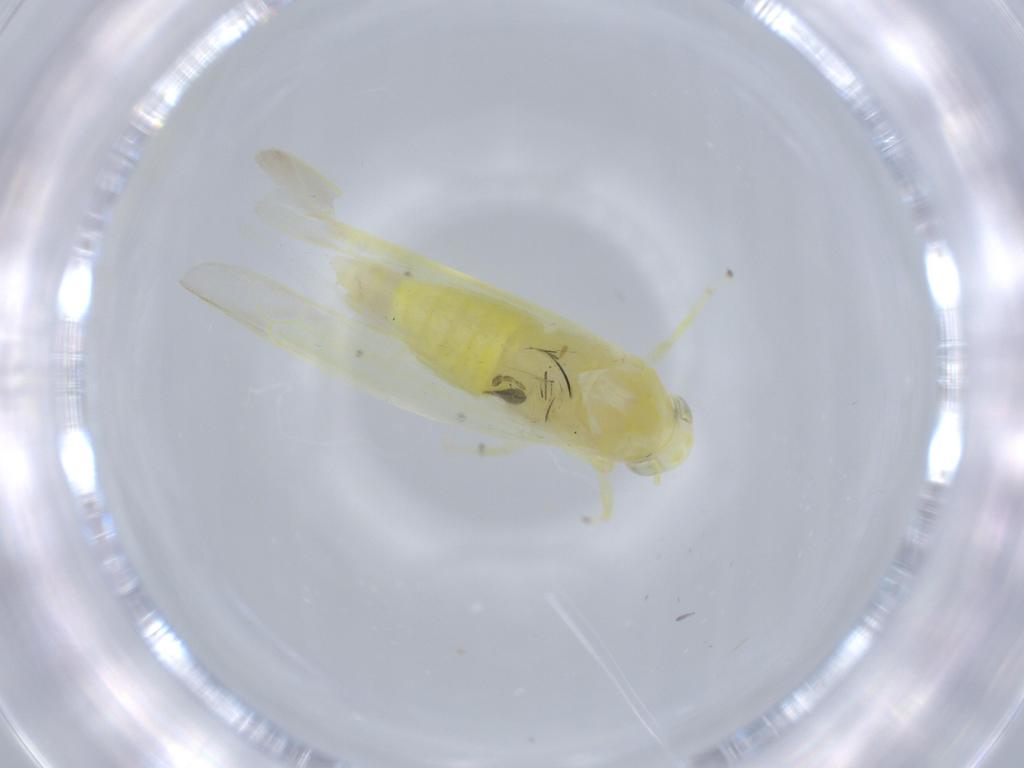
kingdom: Animalia
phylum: Arthropoda
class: Insecta
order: Hemiptera
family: Cicadellidae
